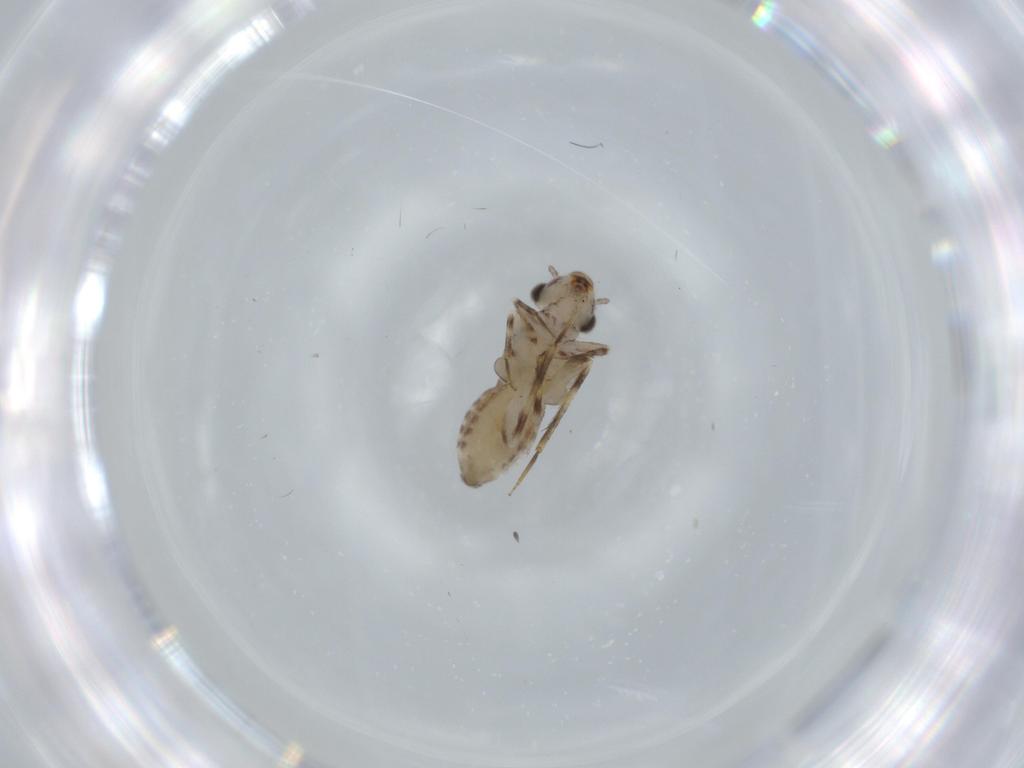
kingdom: Animalia
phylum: Arthropoda
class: Insecta
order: Psocodea
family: Lepidopsocidae
